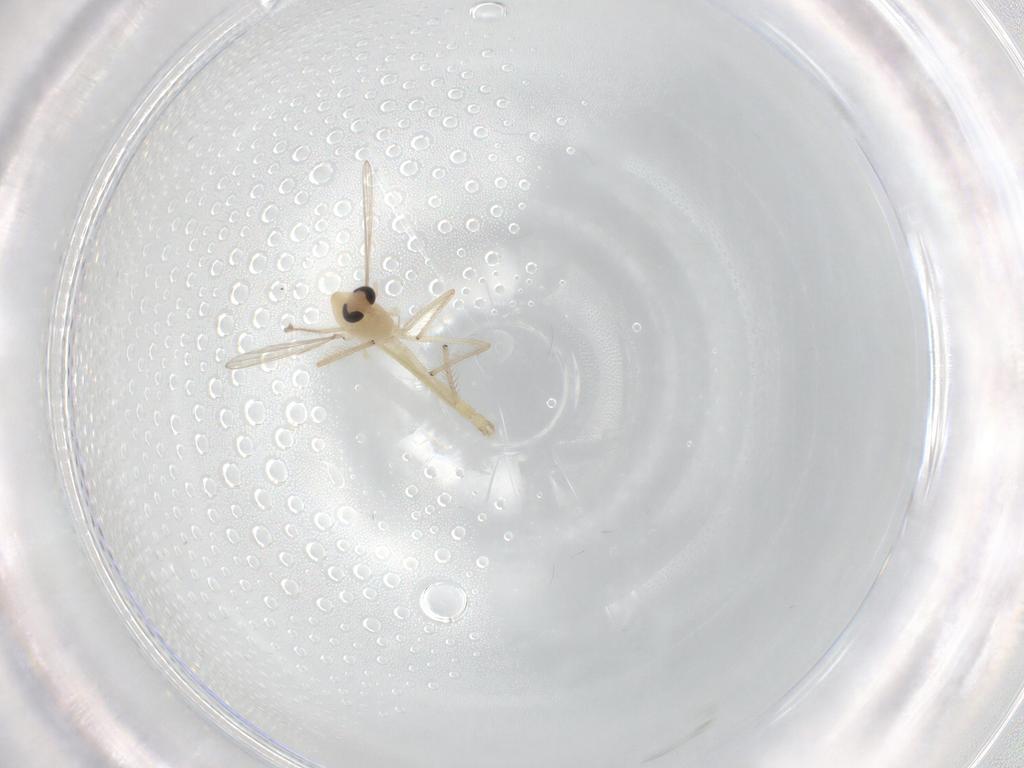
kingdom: Animalia
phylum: Arthropoda
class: Insecta
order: Diptera
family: Chironomidae
